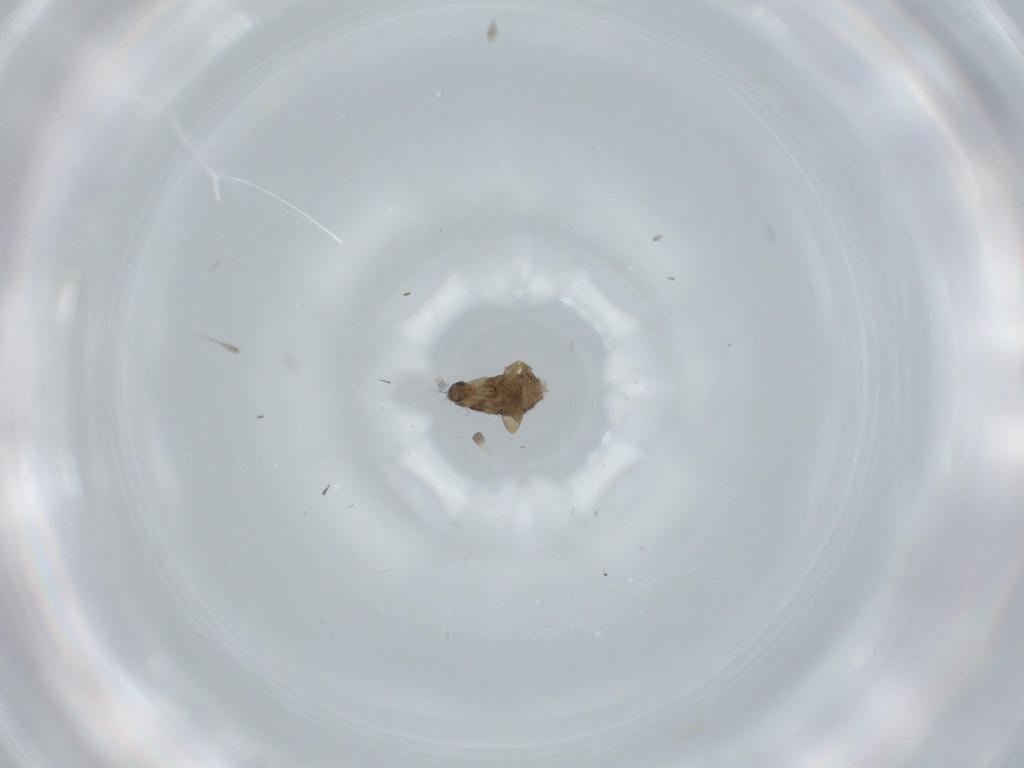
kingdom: Animalia
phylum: Arthropoda
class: Insecta
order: Diptera
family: Phoridae
